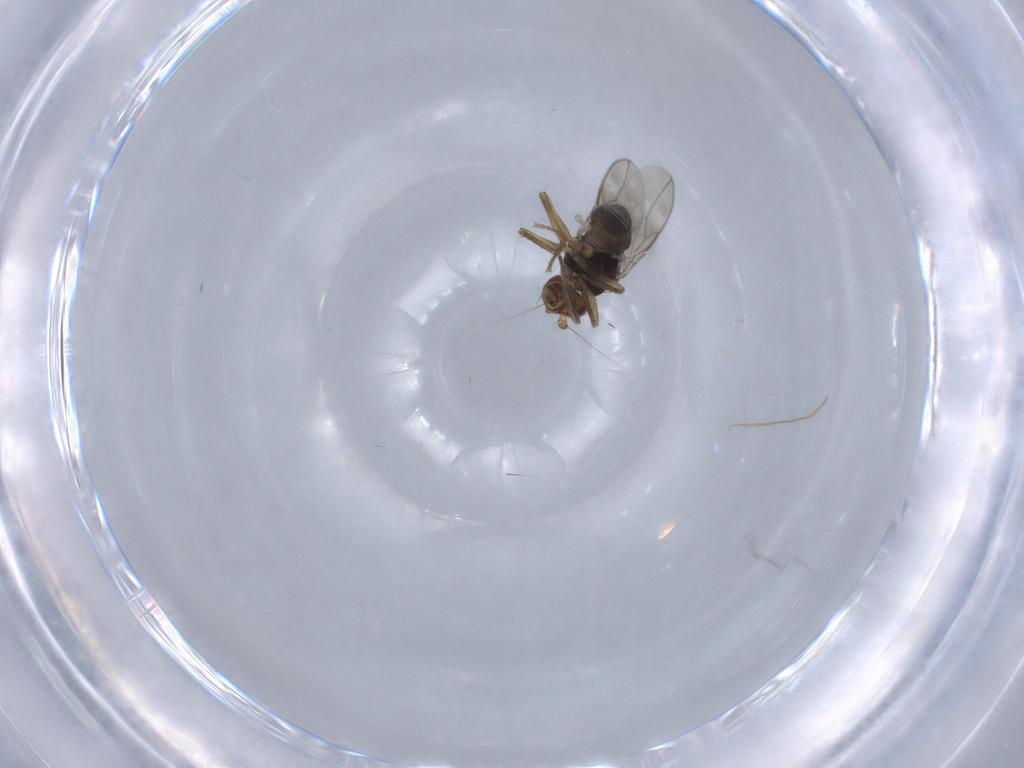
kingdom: Animalia
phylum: Arthropoda
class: Insecta
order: Diptera
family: Sphaeroceridae
